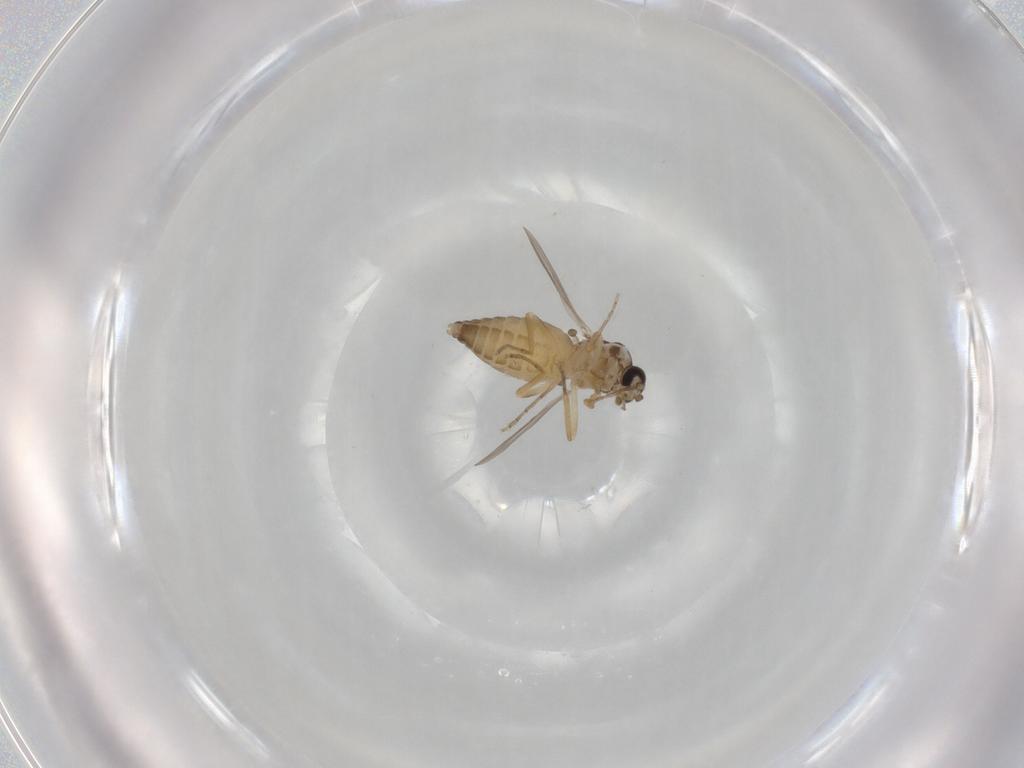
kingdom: Animalia
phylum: Arthropoda
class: Insecta
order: Diptera
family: Ceratopogonidae
